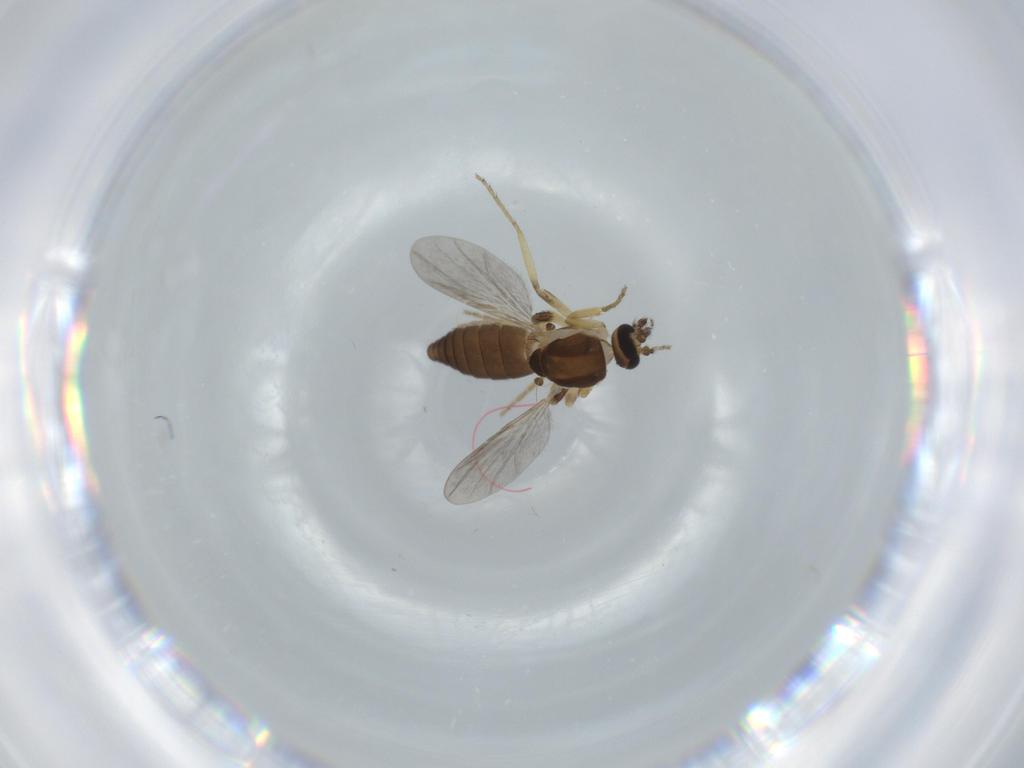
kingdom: Animalia
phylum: Arthropoda
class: Insecta
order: Diptera
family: Ceratopogonidae
